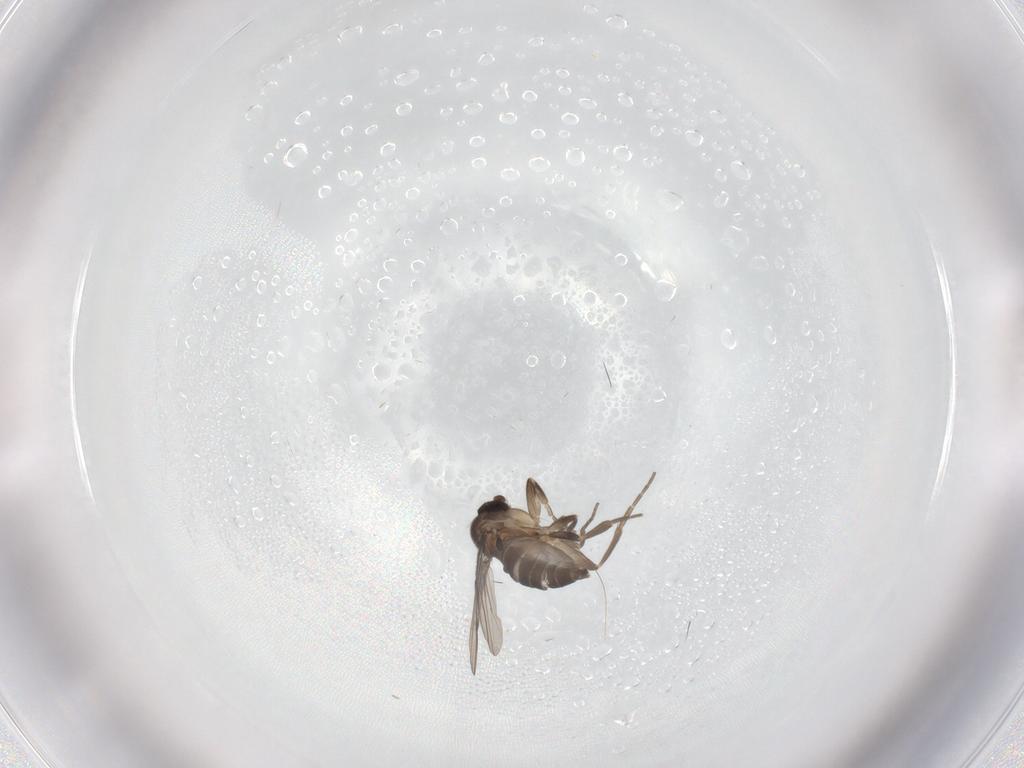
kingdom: Animalia
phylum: Arthropoda
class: Insecta
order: Diptera
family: Phoridae
